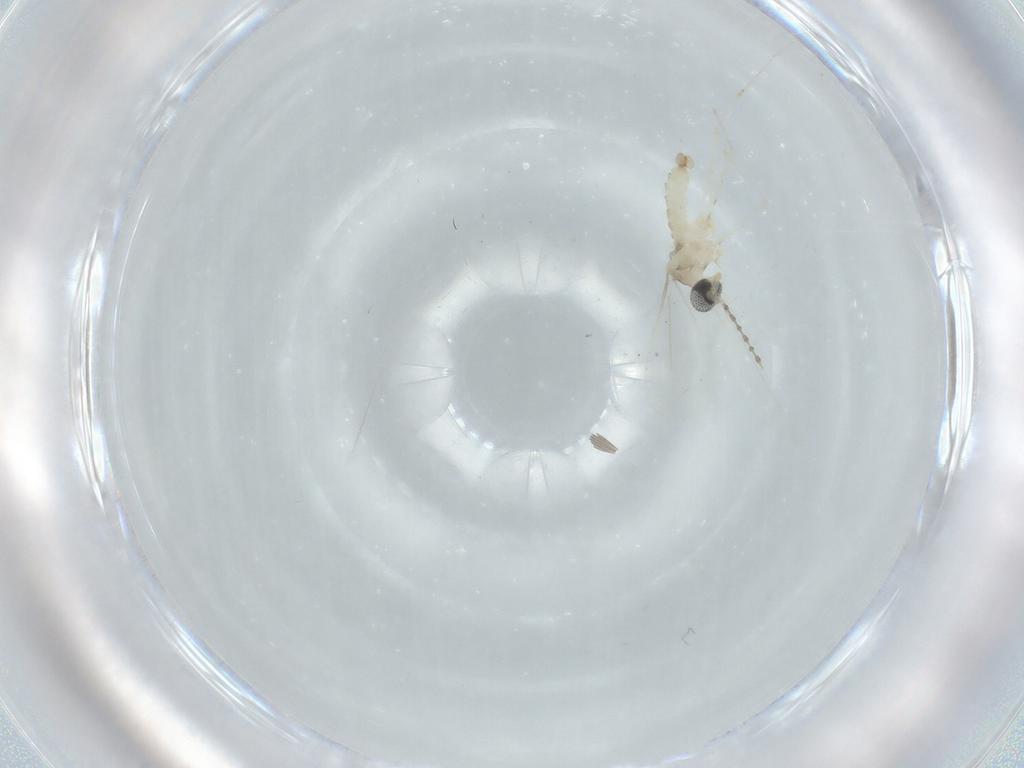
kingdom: Animalia
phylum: Arthropoda
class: Insecta
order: Diptera
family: Cecidomyiidae
